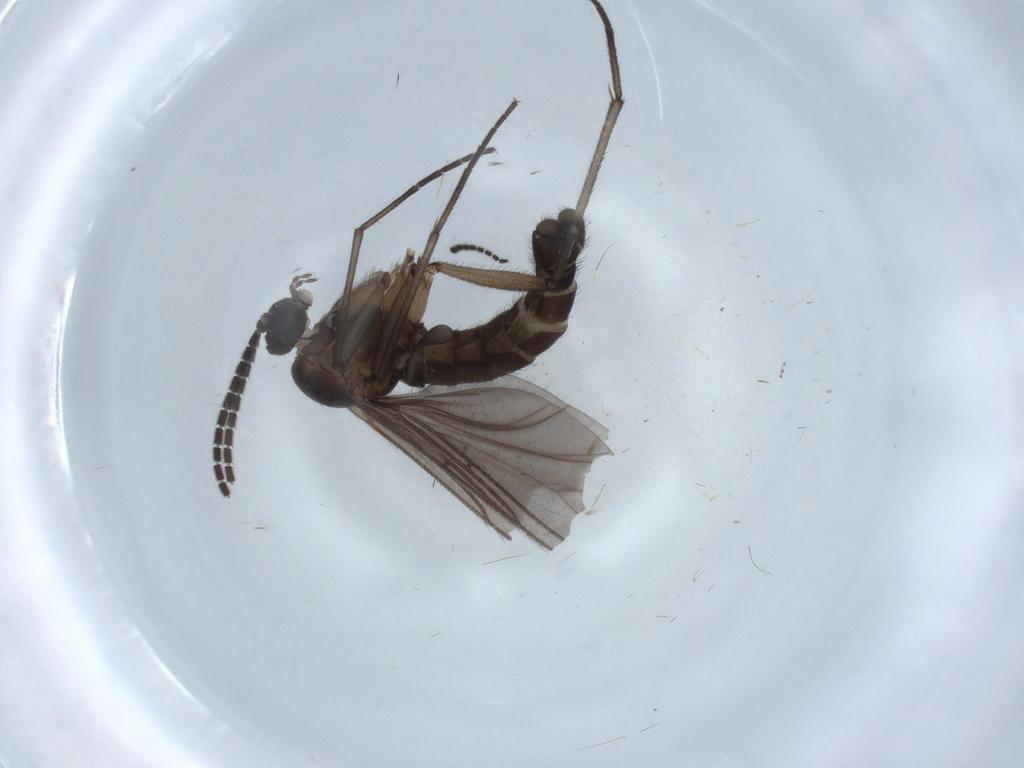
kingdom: Animalia
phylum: Arthropoda
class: Insecta
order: Diptera
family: Sciaridae
